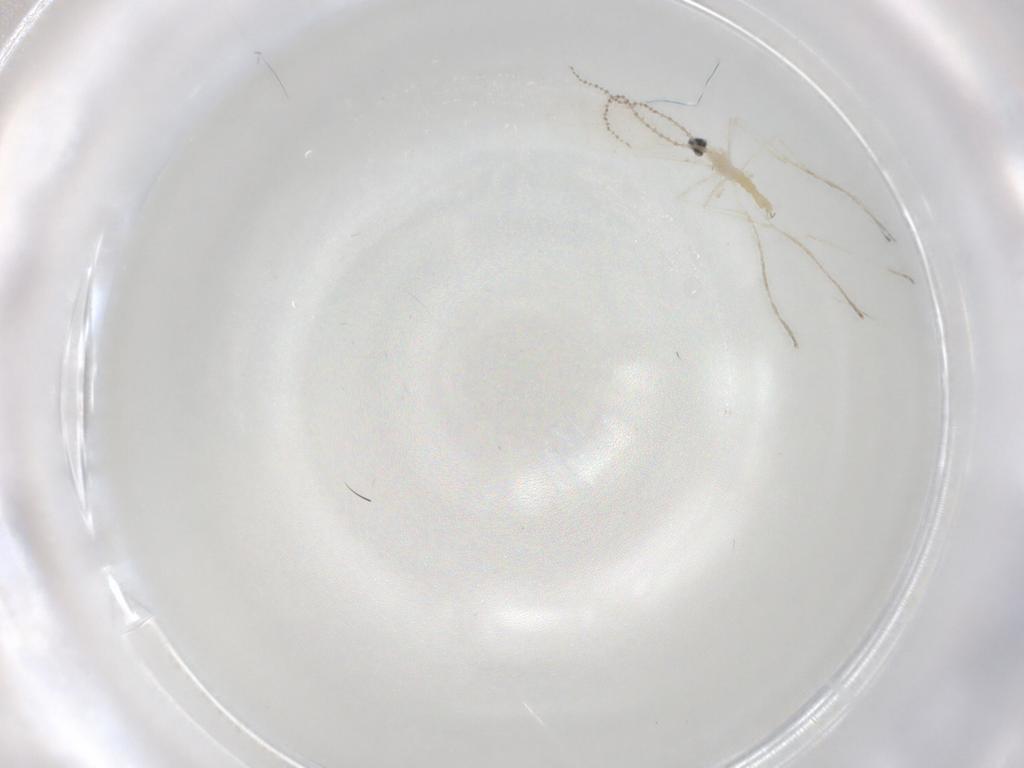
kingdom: Animalia
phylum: Arthropoda
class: Insecta
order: Diptera
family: Cecidomyiidae
